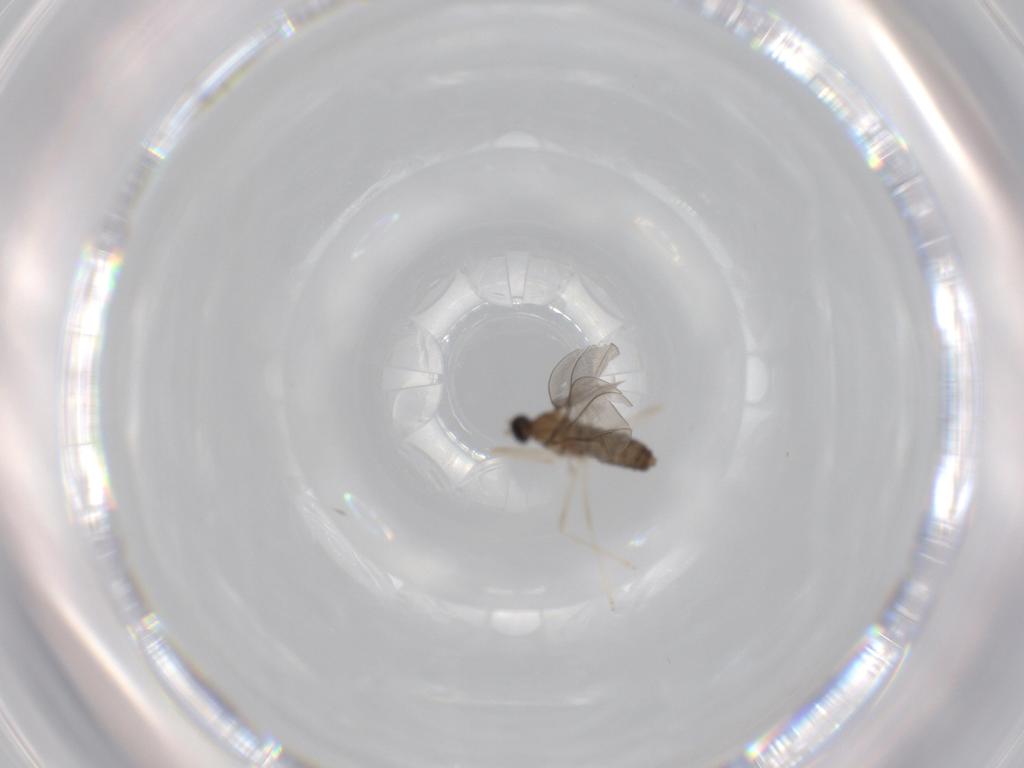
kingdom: Animalia
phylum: Arthropoda
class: Insecta
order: Diptera
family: Cecidomyiidae
